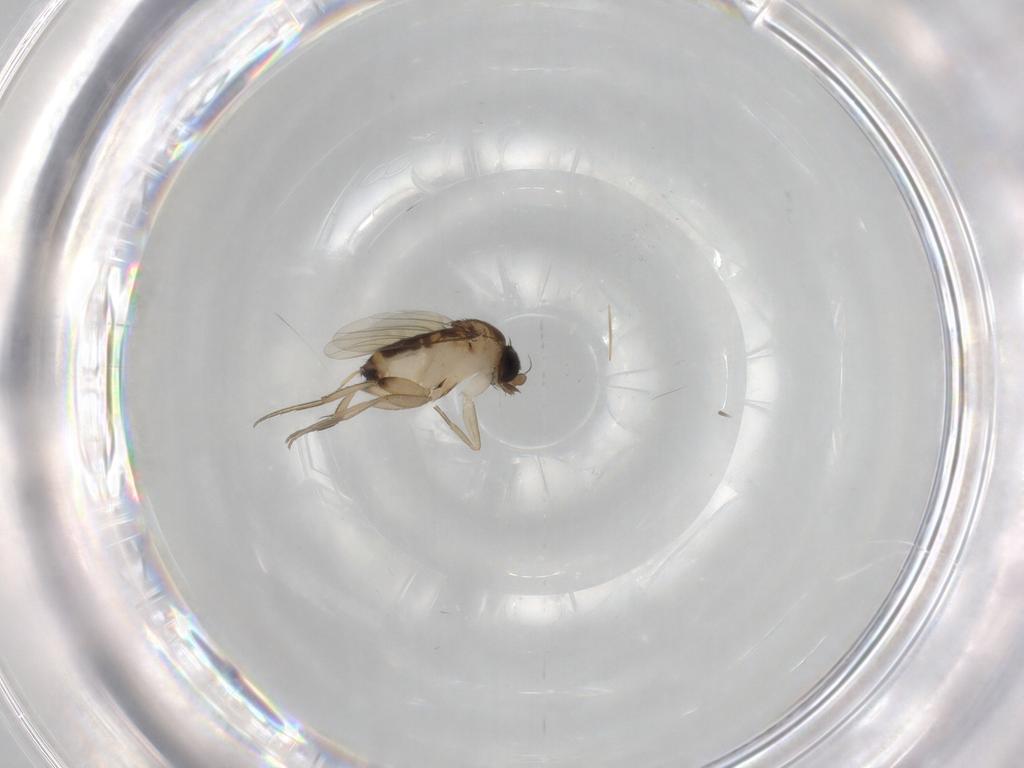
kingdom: Animalia
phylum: Arthropoda
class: Insecta
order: Diptera
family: Phoridae
